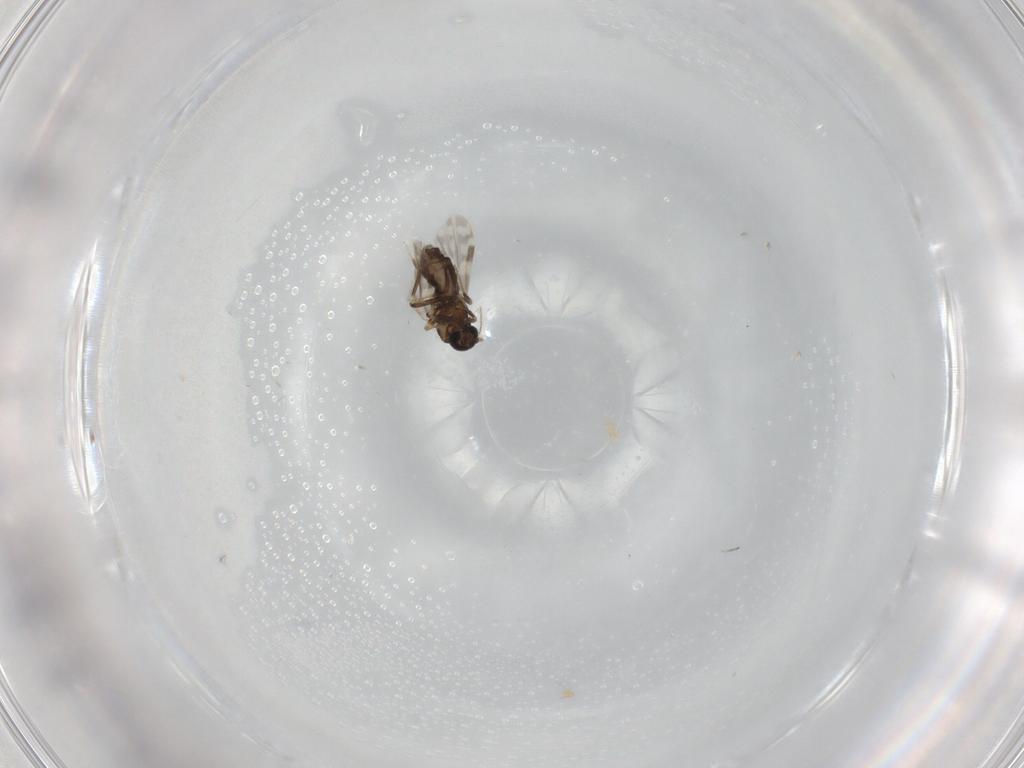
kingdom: Animalia
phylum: Arthropoda
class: Insecta
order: Diptera
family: Ceratopogonidae
